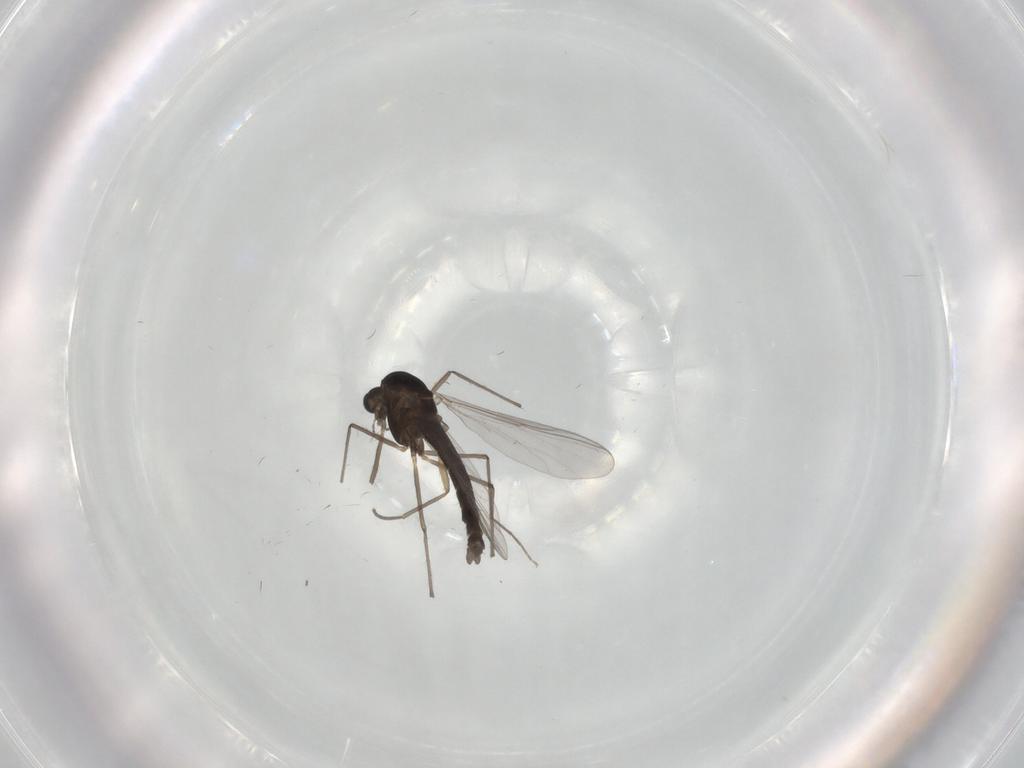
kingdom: Animalia
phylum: Arthropoda
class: Insecta
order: Diptera
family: Chironomidae
